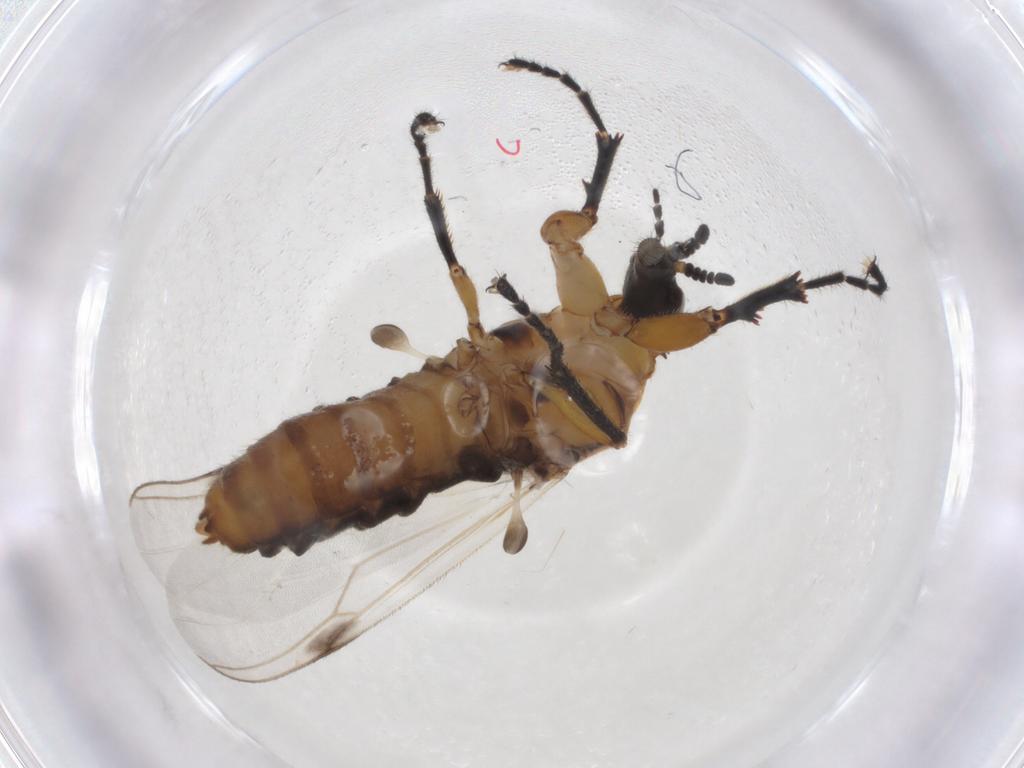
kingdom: Animalia
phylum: Arthropoda
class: Insecta
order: Diptera
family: Bibionidae
